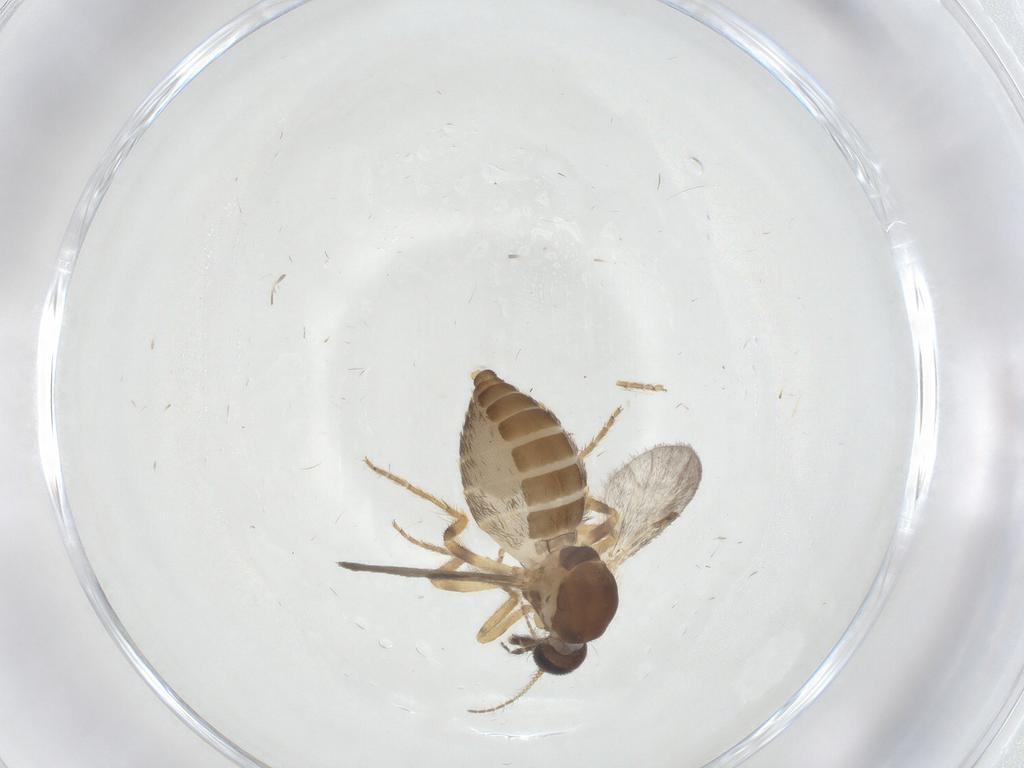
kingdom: Animalia
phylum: Arthropoda
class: Insecta
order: Diptera
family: Ceratopogonidae
